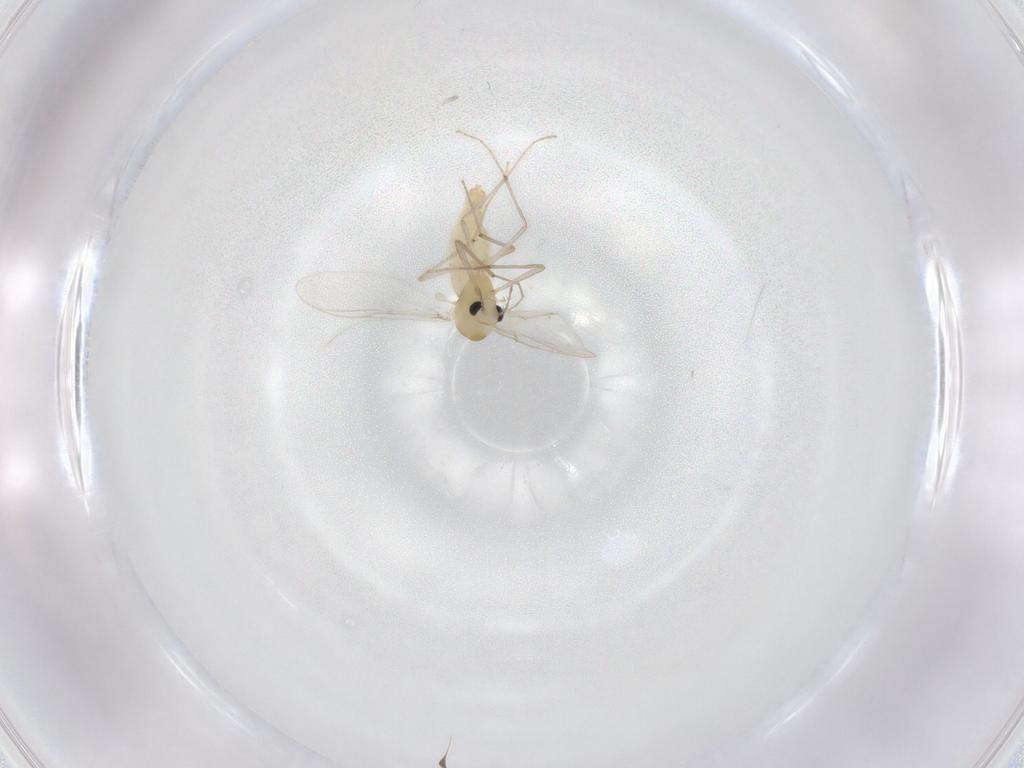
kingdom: Animalia
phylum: Arthropoda
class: Insecta
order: Diptera
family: Chironomidae
